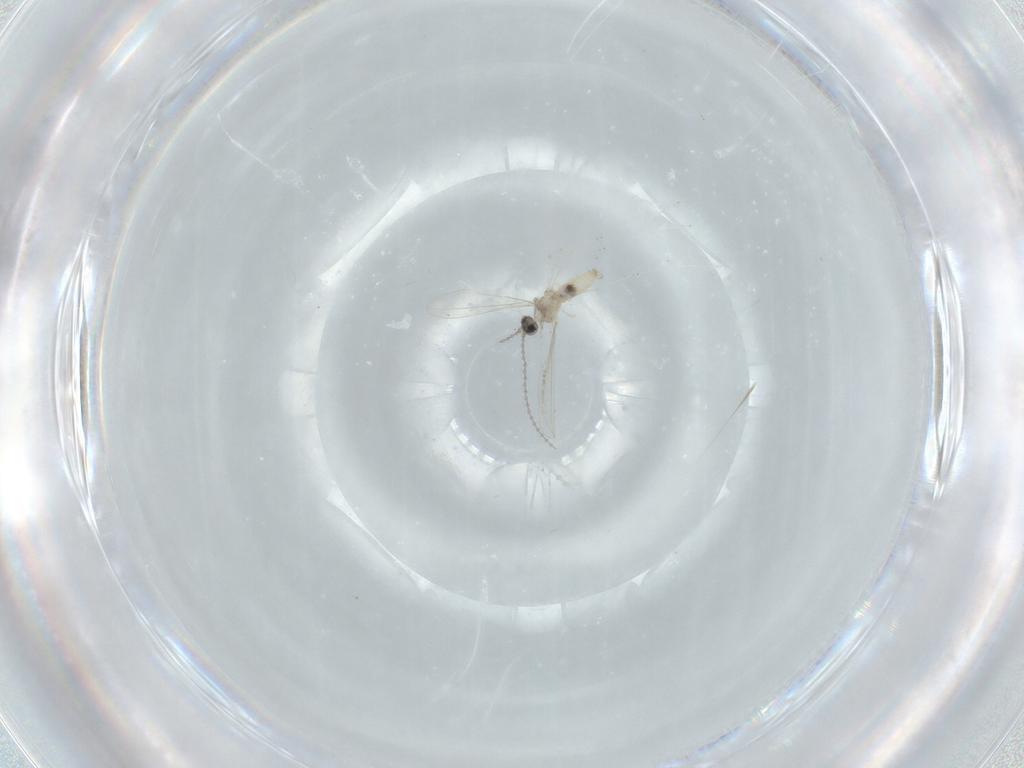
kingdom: Animalia
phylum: Arthropoda
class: Insecta
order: Diptera
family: Cecidomyiidae
